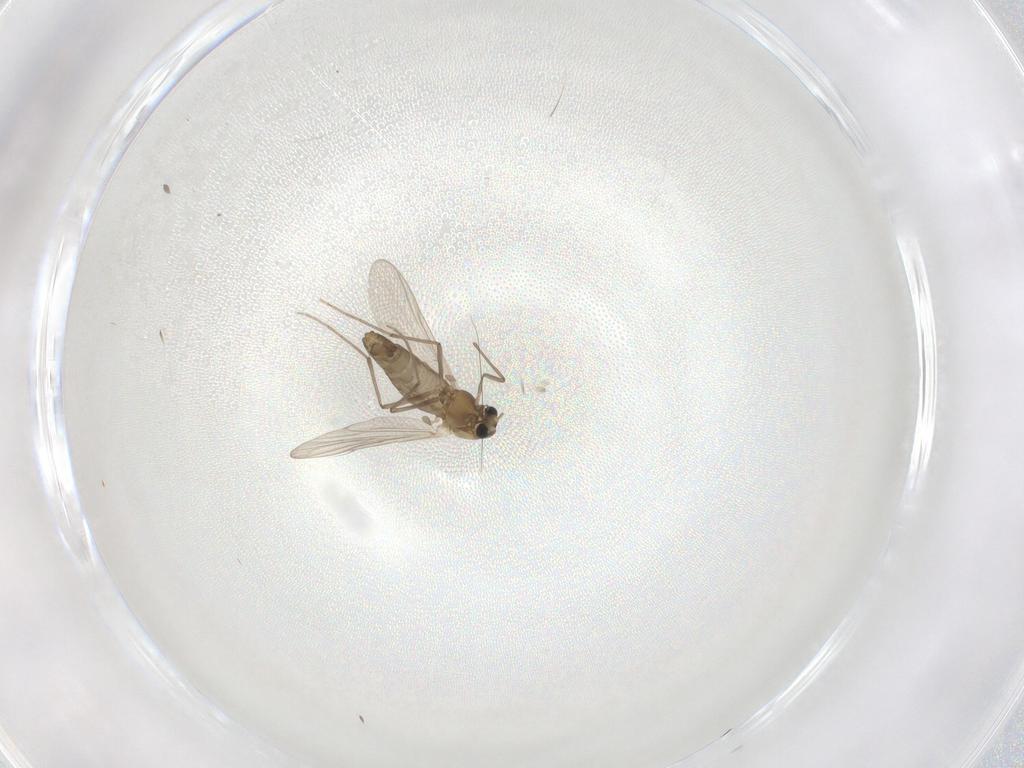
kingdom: Animalia
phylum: Arthropoda
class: Insecta
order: Diptera
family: Chironomidae
